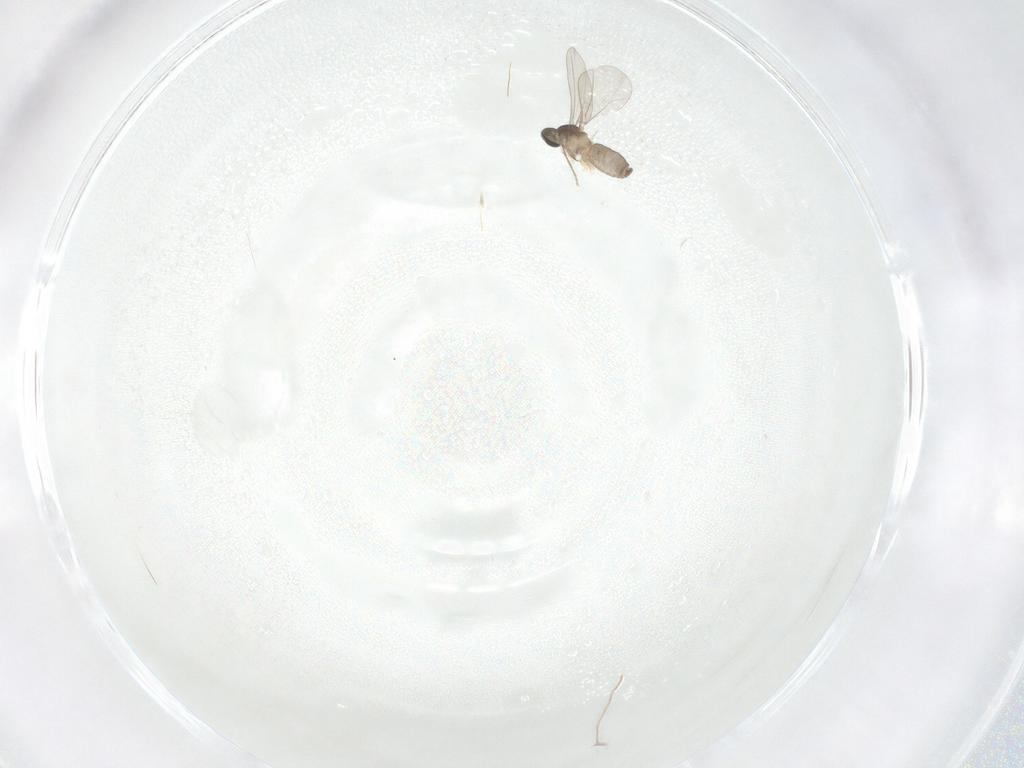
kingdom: Animalia
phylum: Arthropoda
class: Insecta
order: Diptera
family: Cecidomyiidae
